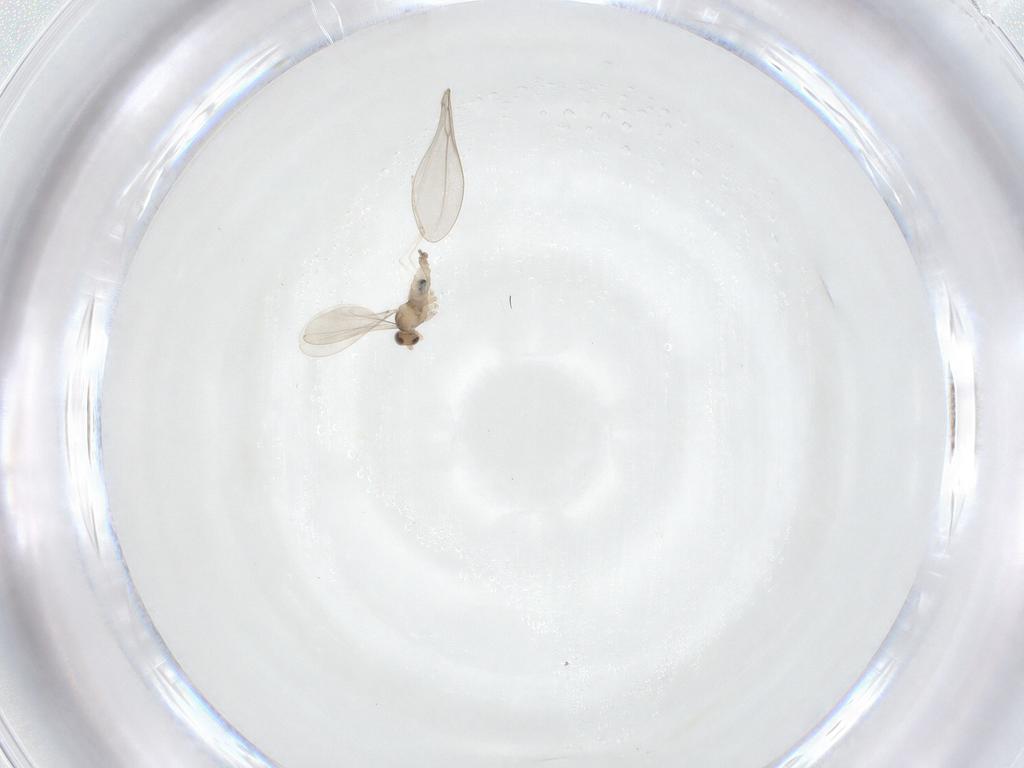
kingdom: Animalia
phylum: Arthropoda
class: Insecta
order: Diptera
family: Cecidomyiidae
